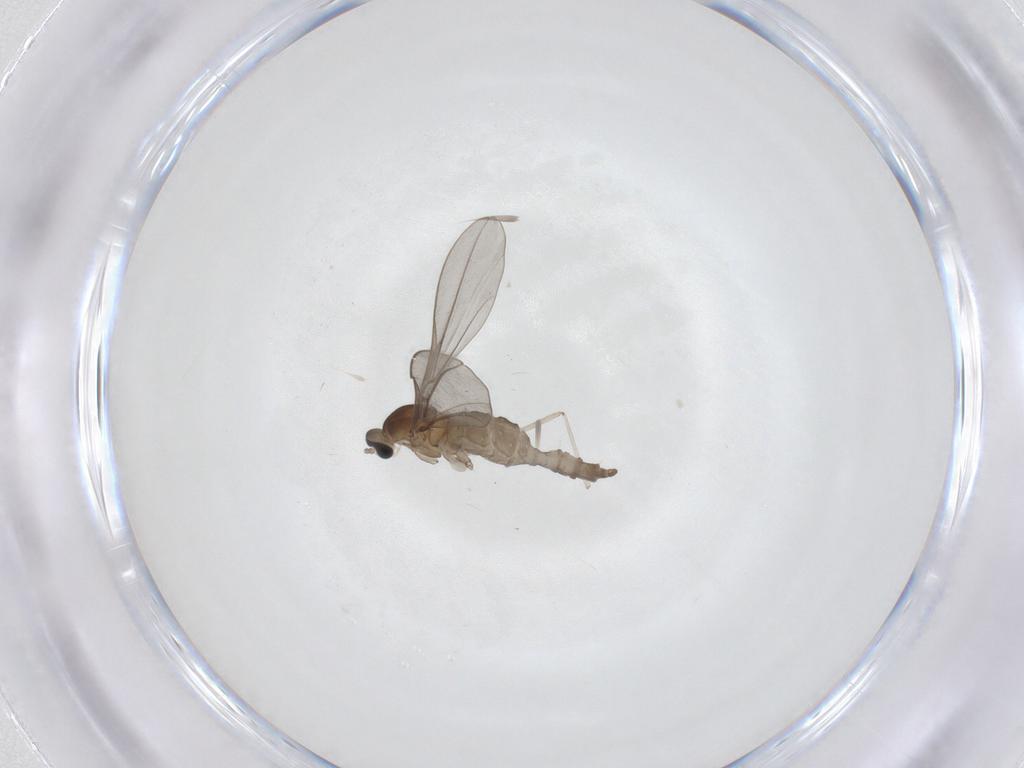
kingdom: Animalia
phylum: Arthropoda
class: Insecta
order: Diptera
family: Cecidomyiidae
